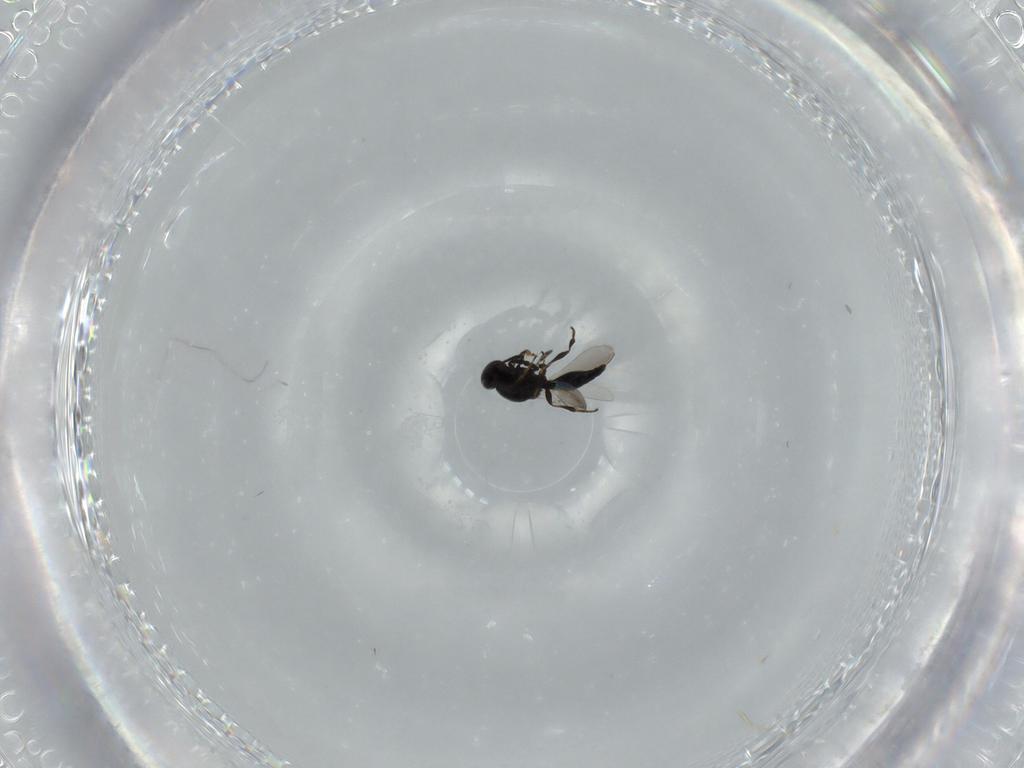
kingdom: Animalia
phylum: Arthropoda
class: Insecta
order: Hymenoptera
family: Platygastridae
